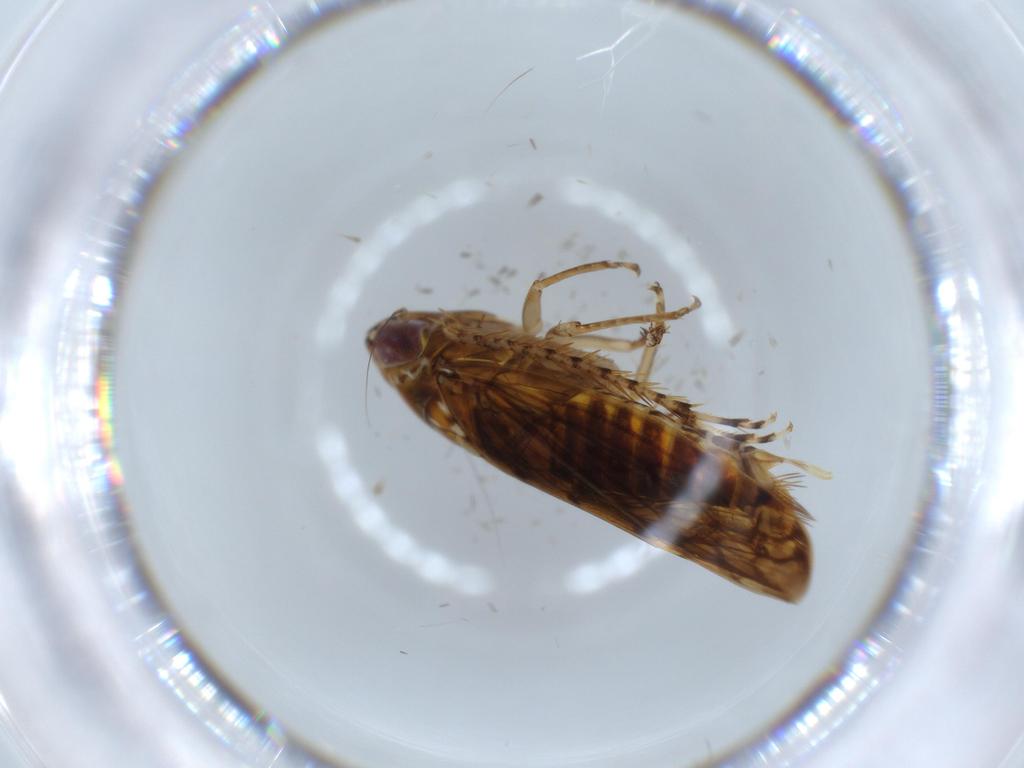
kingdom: Animalia
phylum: Arthropoda
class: Insecta
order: Hemiptera
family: Cicadellidae
